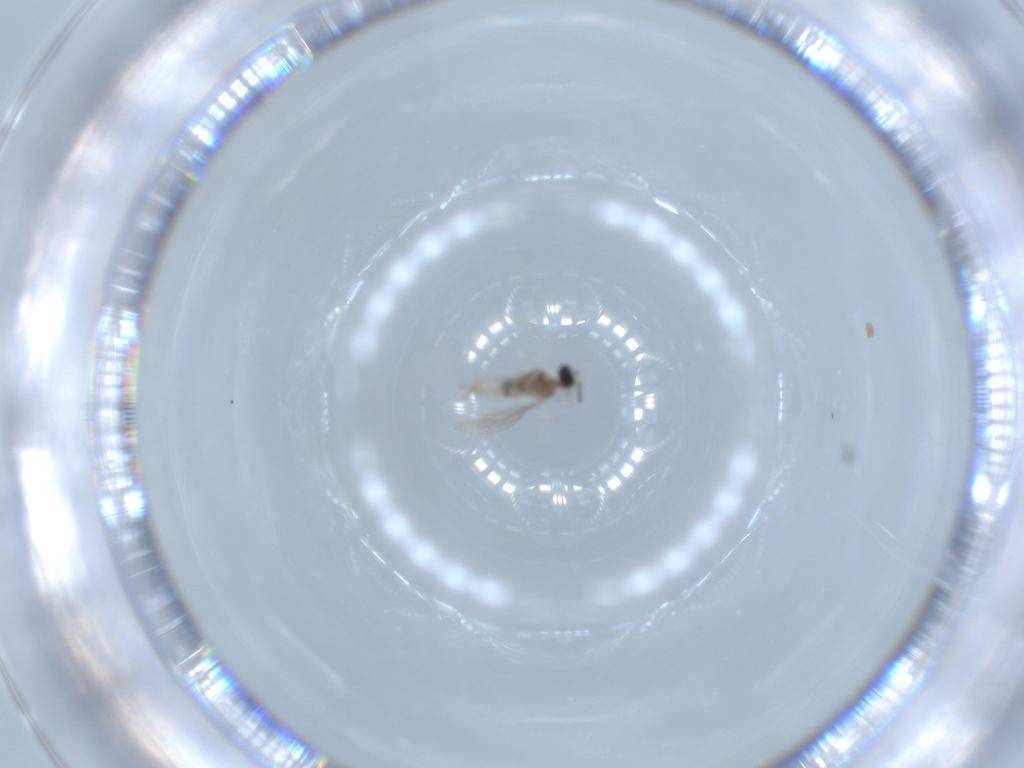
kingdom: Animalia
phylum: Arthropoda
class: Insecta
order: Diptera
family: Cecidomyiidae
